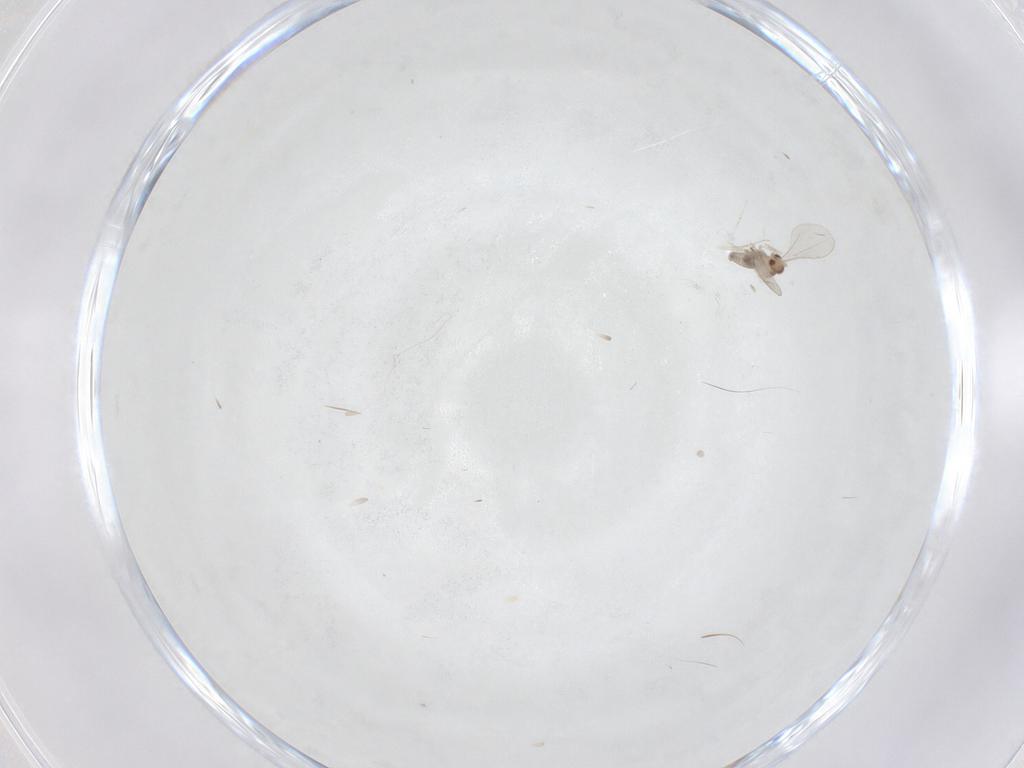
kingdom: Animalia
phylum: Arthropoda
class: Insecta
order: Diptera
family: Cecidomyiidae
